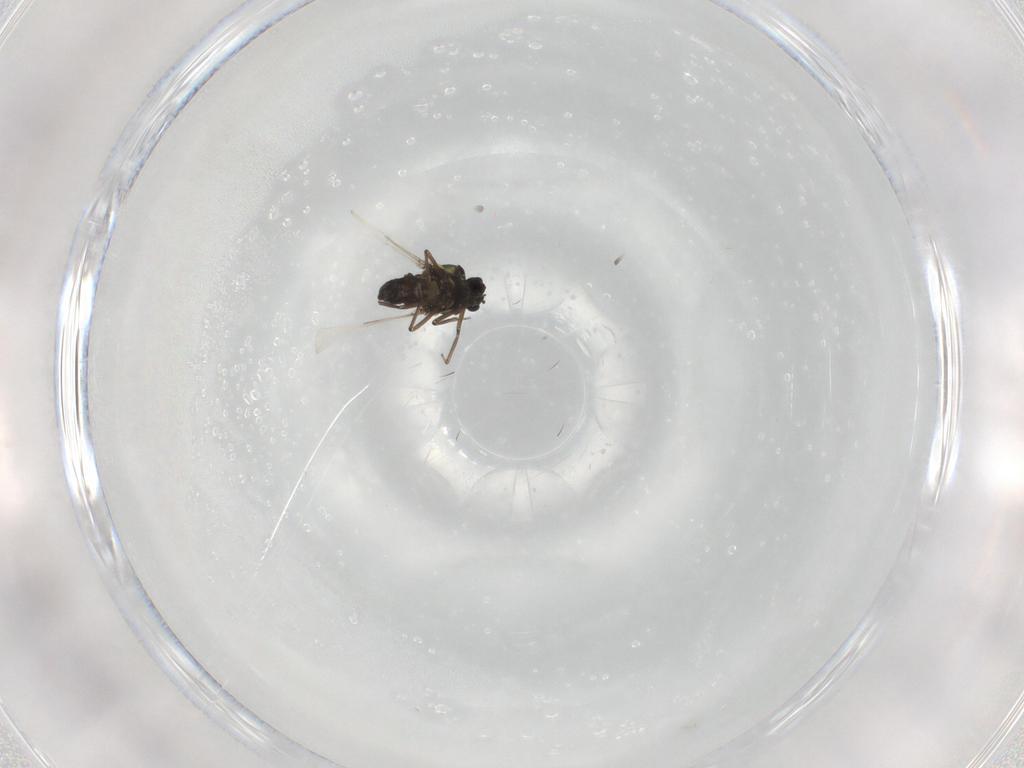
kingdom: Animalia
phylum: Arthropoda
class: Insecta
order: Diptera
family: Ceratopogonidae
